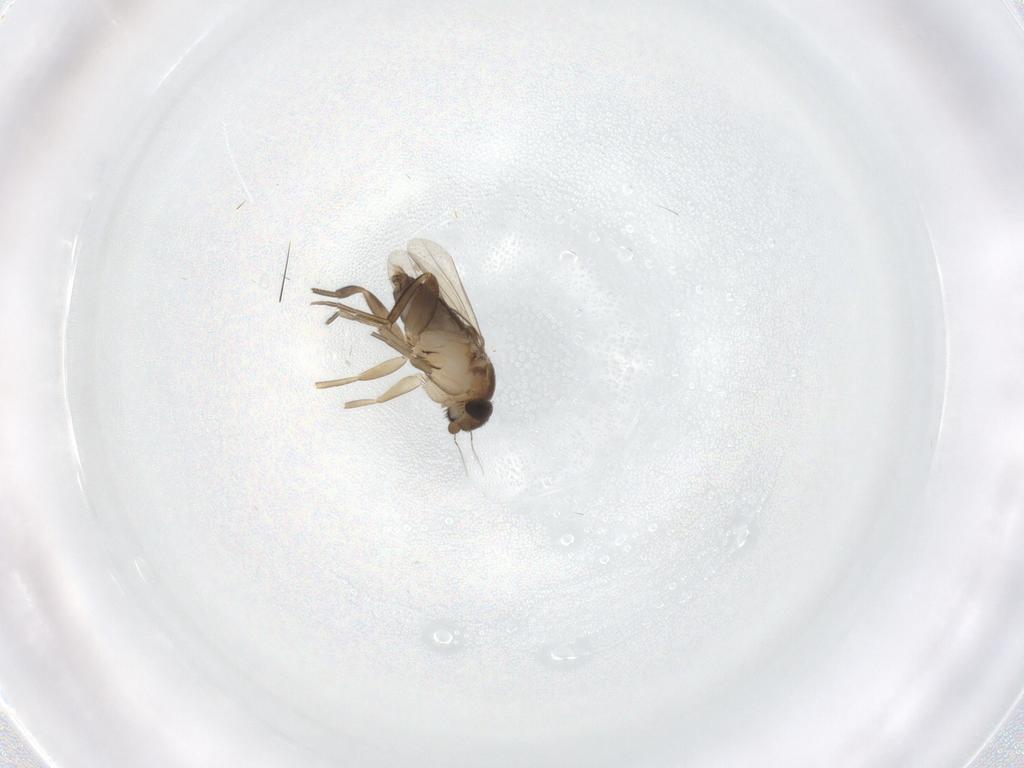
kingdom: Animalia
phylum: Arthropoda
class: Insecta
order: Diptera
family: Phoridae
